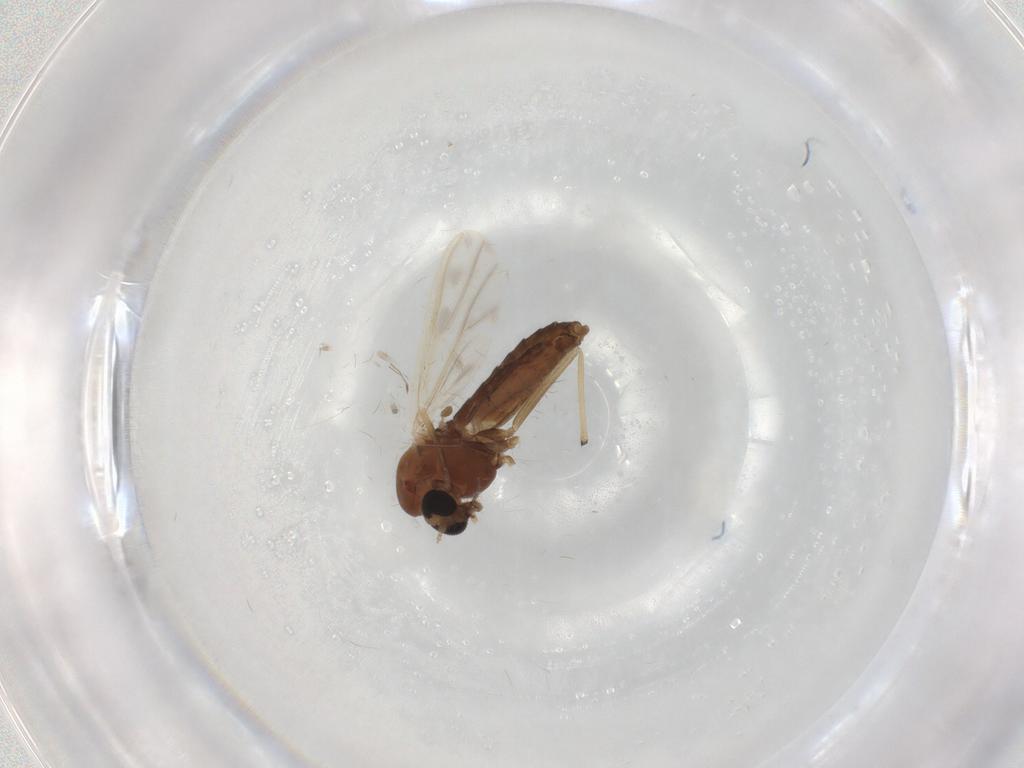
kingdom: Animalia
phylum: Arthropoda
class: Insecta
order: Diptera
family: Chironomidae
